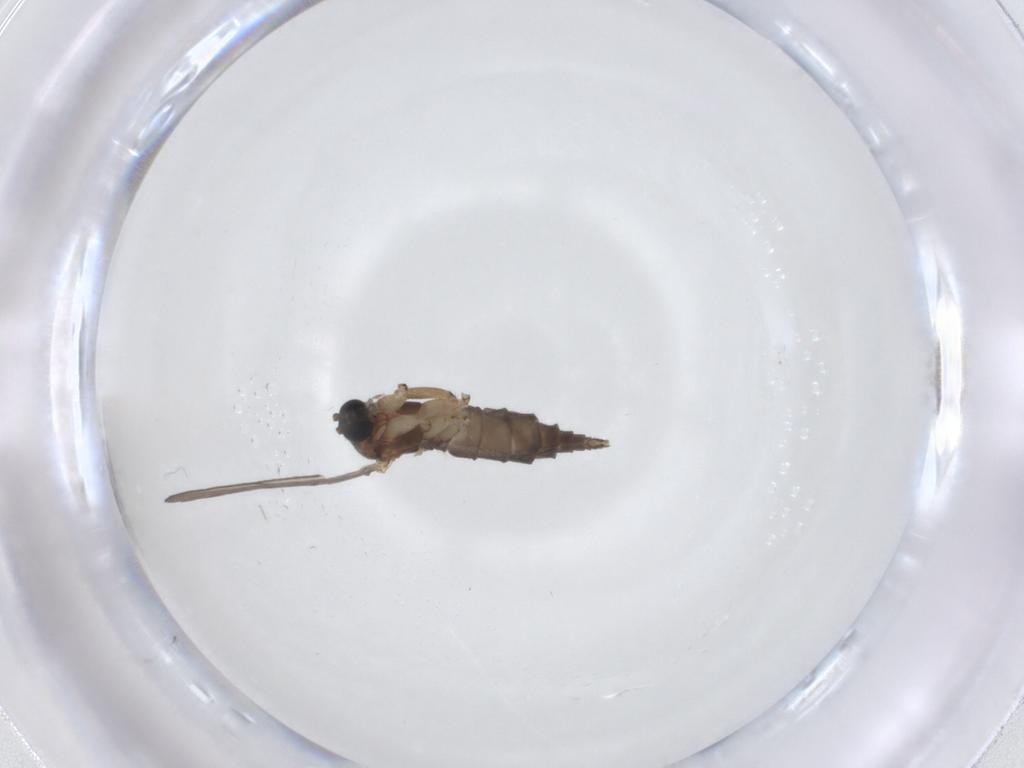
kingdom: Animalia
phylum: Arthropoda
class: Insecta
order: Diptera
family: Sciaridae
